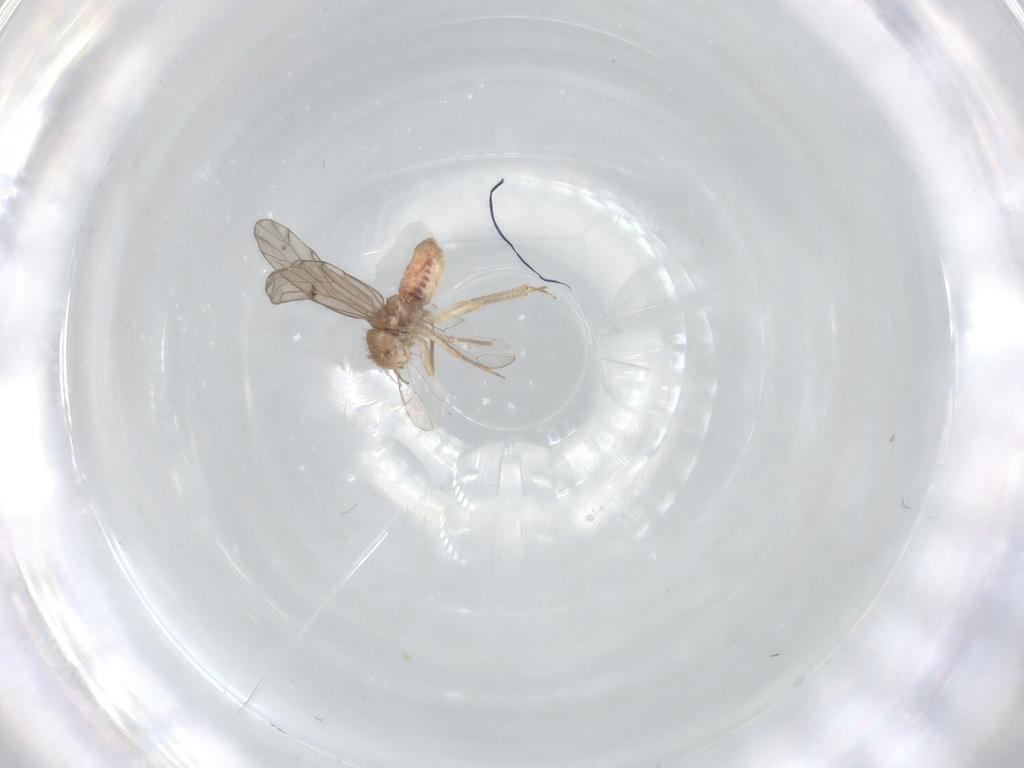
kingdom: Animalia
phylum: Arthropoda
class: Insecta
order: Psocodea
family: Ectopsocidae
